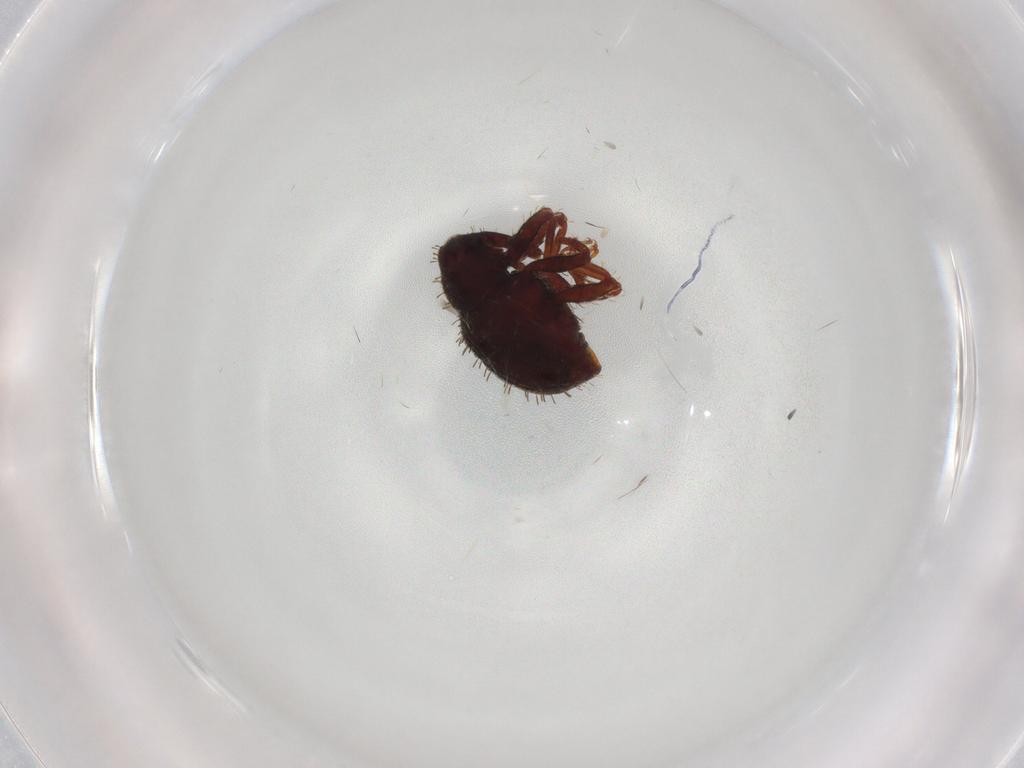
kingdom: Animalia
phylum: Arthropoda
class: Insecta
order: Coleoptera
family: Curculionidae
